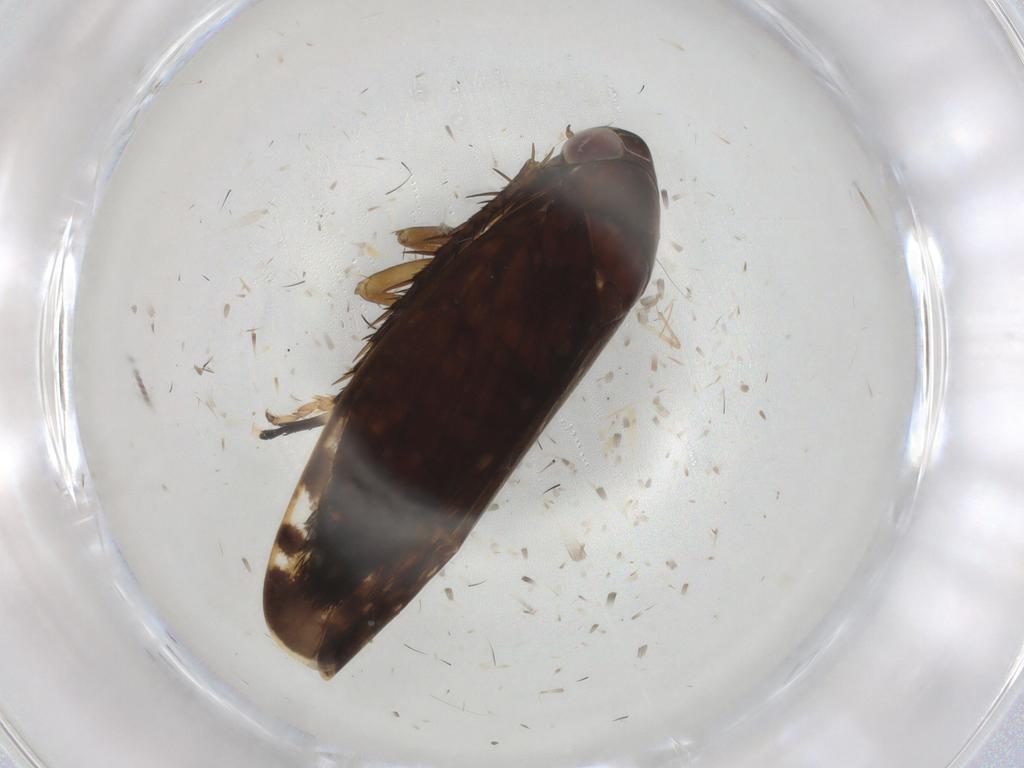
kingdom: Animalia
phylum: Arthropoda
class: Insecta
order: Hemiptera
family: Cicadellidae
